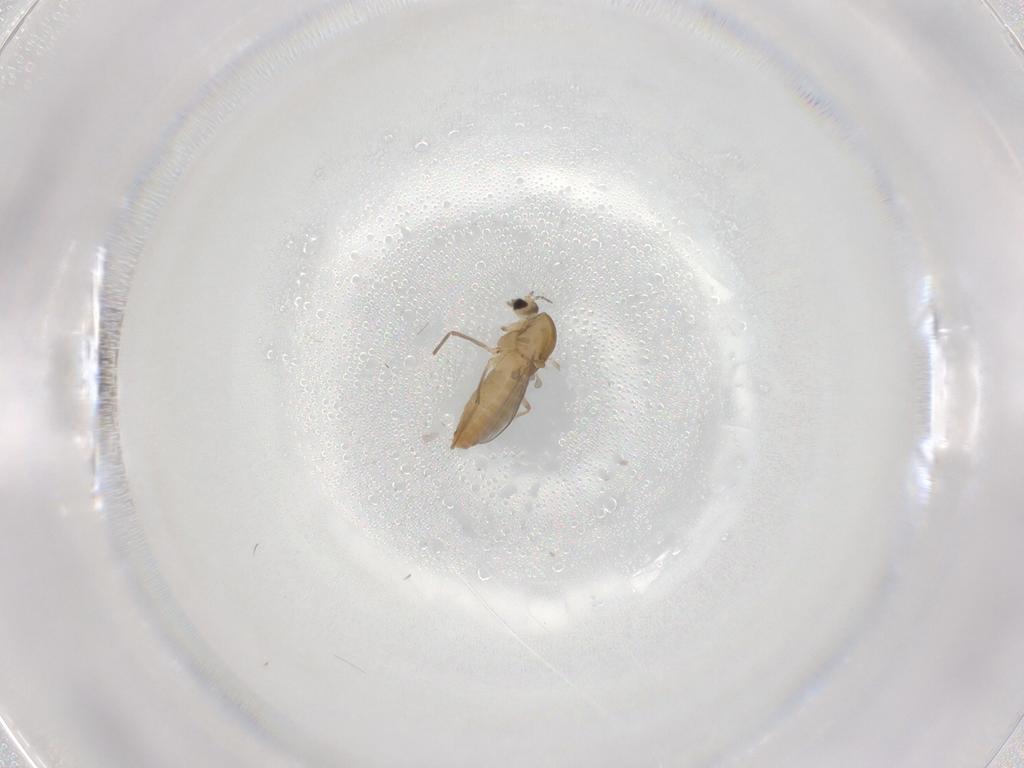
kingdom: Animalia
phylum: Arthropoda
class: Insecta
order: Diptera
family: Chironomidae
